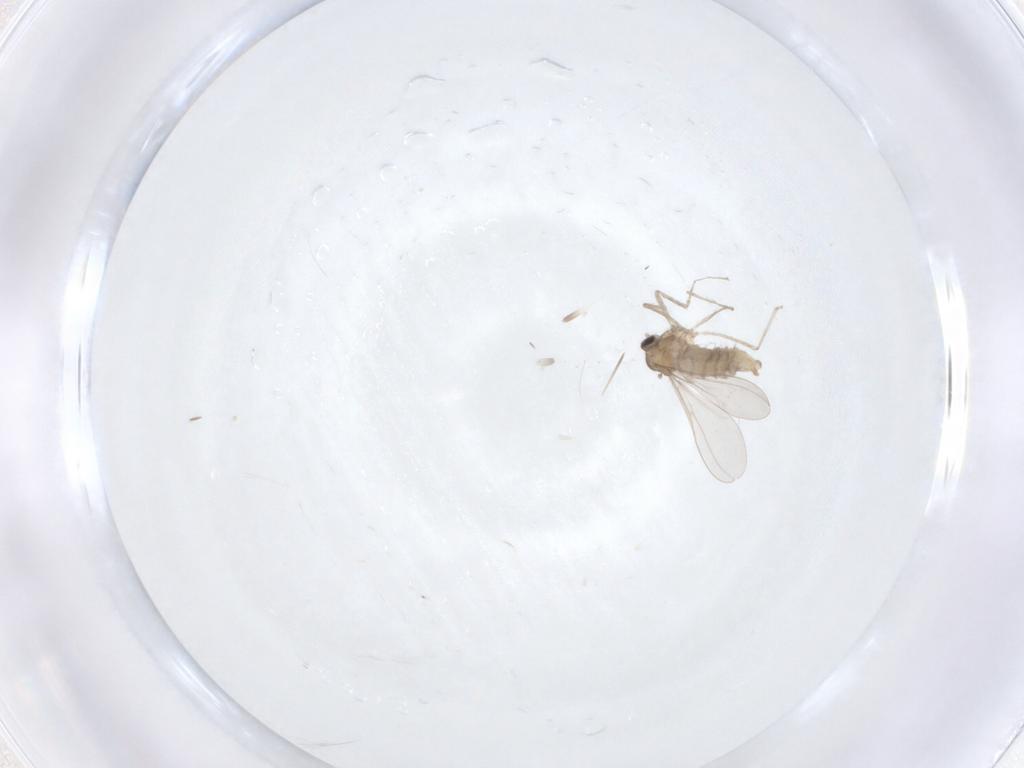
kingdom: Animalia
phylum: Arthropoda
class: Insecta
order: Diptera
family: Cecidomyiidae
